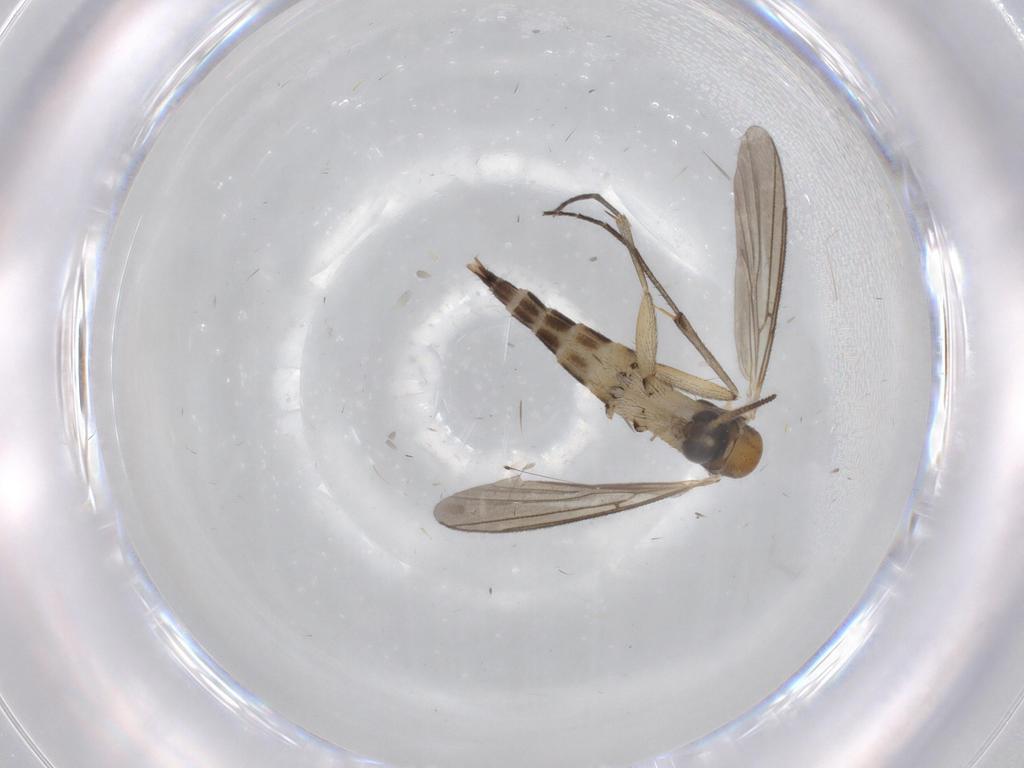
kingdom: Animalia
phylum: Arthropoda
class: Insecta
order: Diptera
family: Mycetophilidae
